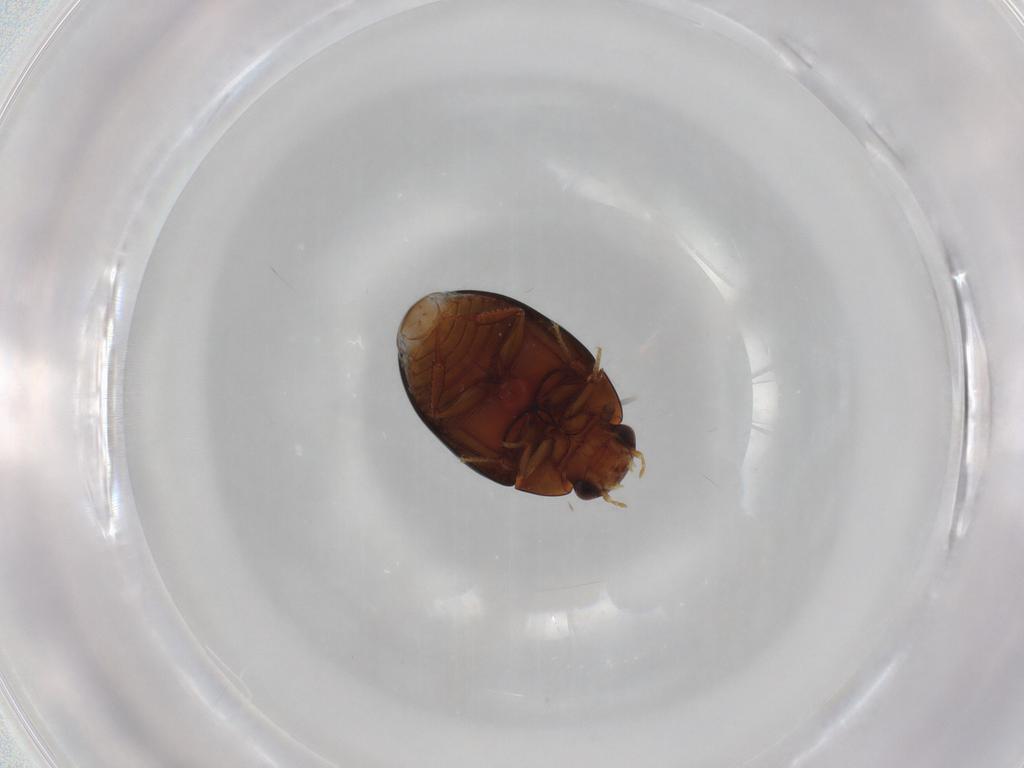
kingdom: Animalia
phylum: Arthropoda
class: Insecta
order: Coleoptera
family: Hydrophilidae
